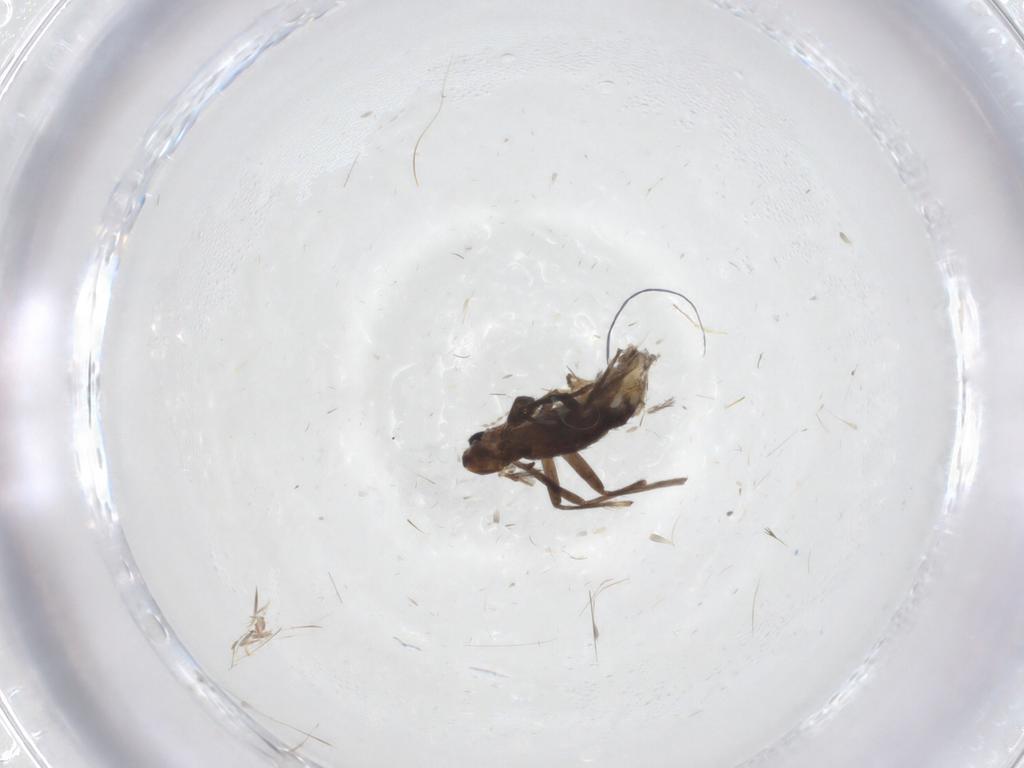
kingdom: Animalia
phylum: Arthropoda
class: Insecta
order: Diptera
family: Chironomidae
